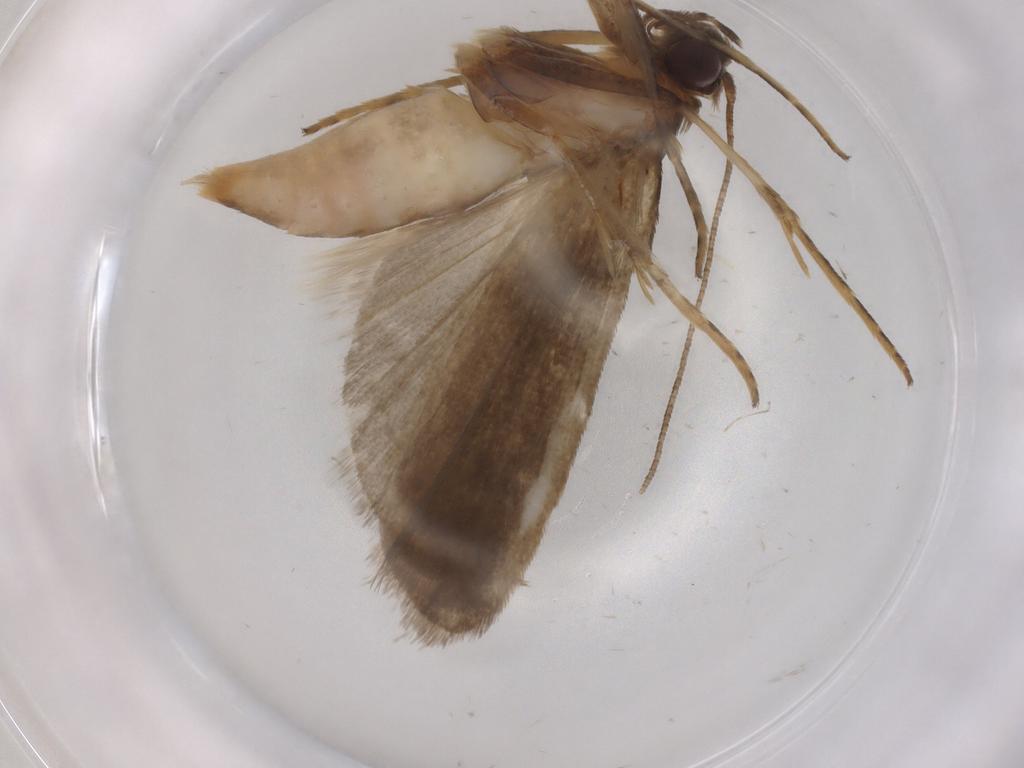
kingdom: Animalia
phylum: Arthropoda
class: Insecta
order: Lepidoptera
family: Noctuidae
